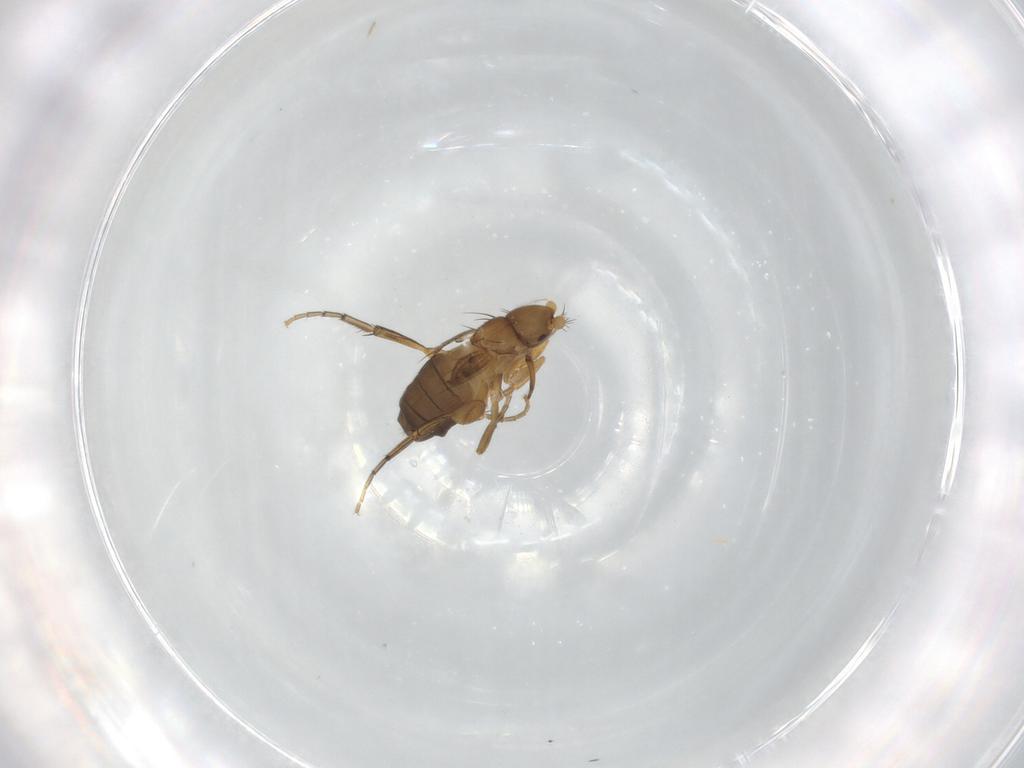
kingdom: Animalia
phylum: Arthropoda
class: Insecta
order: Diptera
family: Phoridae
